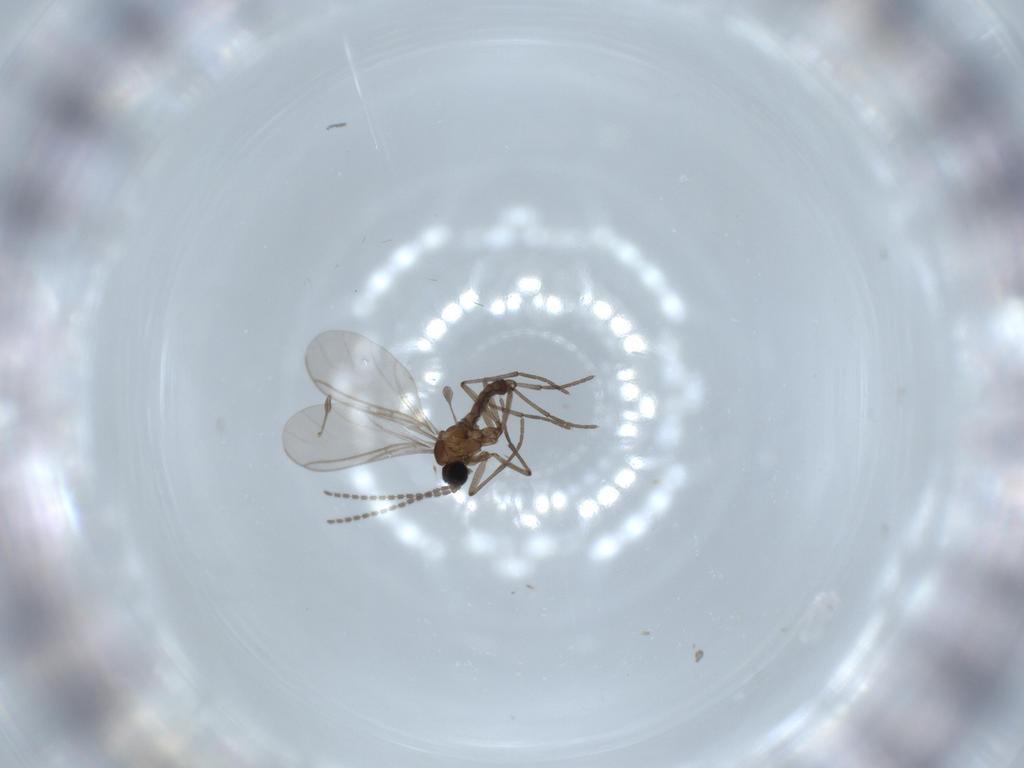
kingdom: Animalia
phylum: Arthropoda
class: Insecta
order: Diptera
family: Sciaridae
